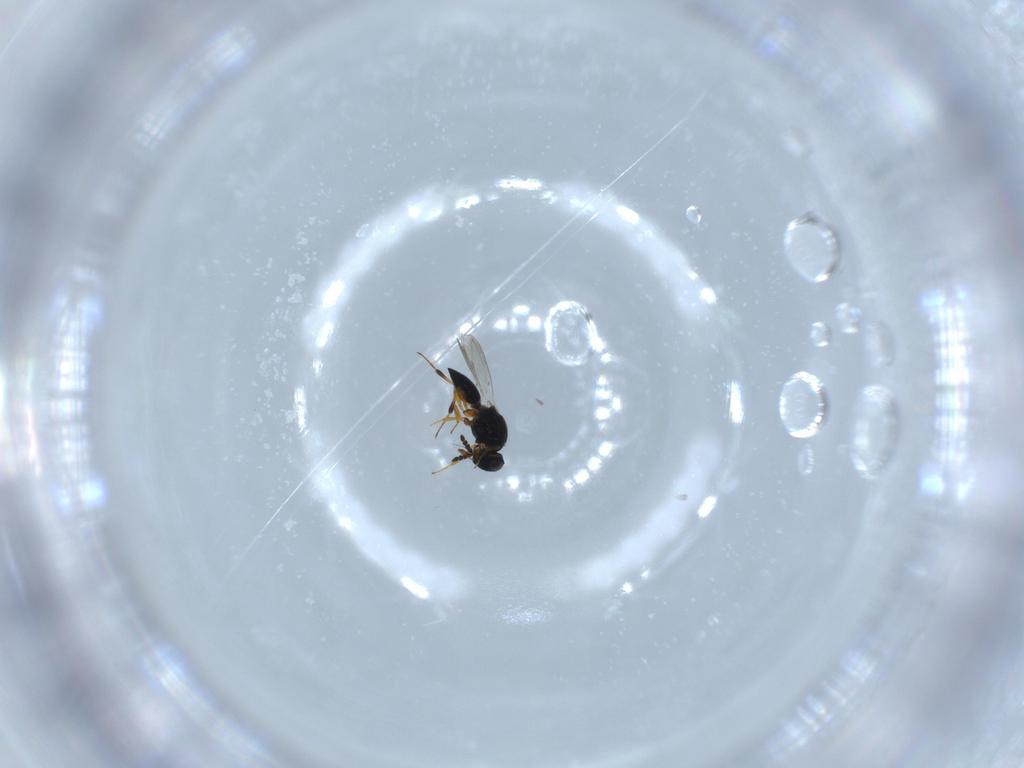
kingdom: Animalia
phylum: Arthropoda
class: Insecta
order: Hymenoptera
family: Platygastridae
